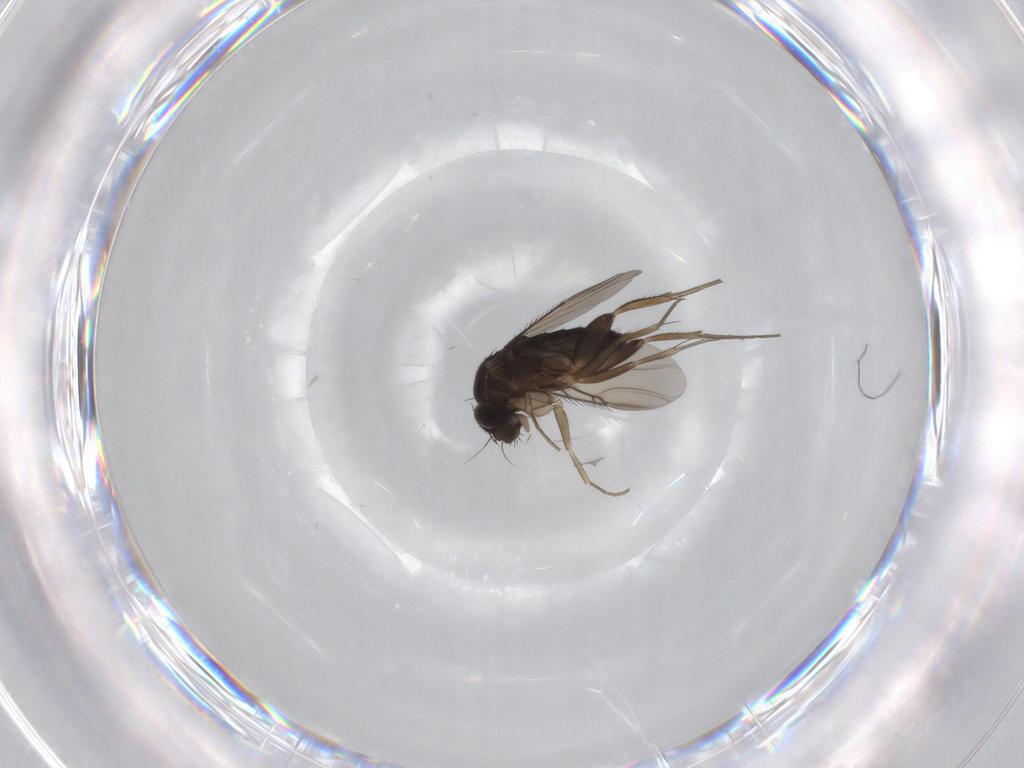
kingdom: Animalia
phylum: Arthropoda
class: Insecta
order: Diptera
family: Phoridae
